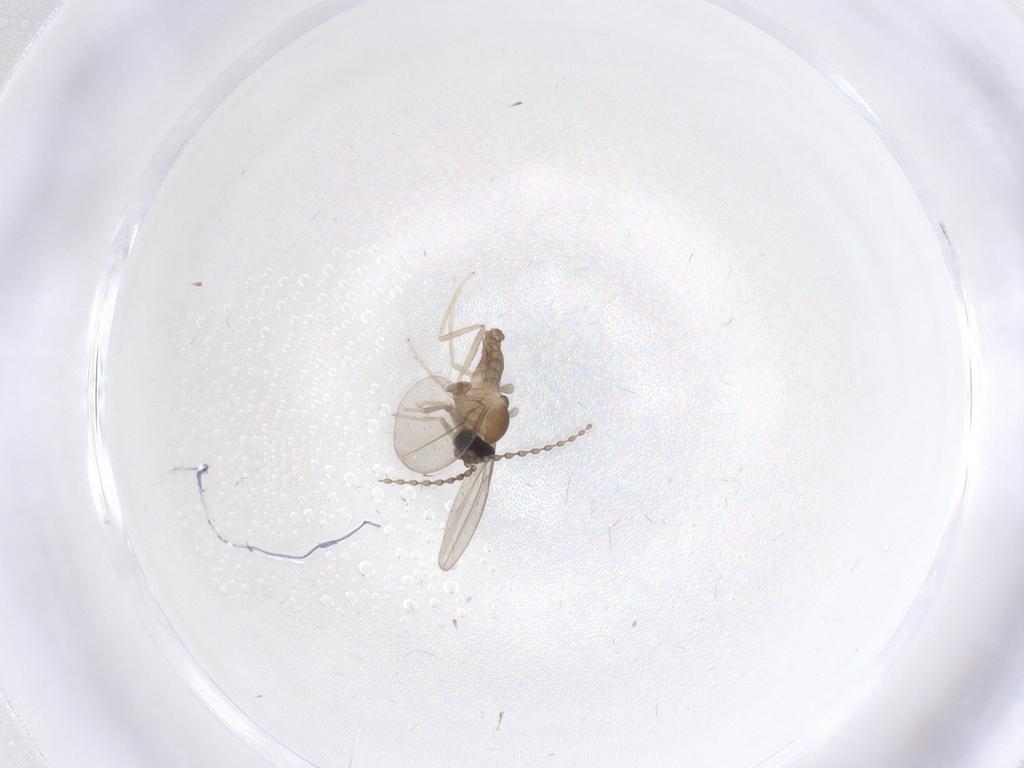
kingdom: Animalia
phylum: Arthropoda
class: Insecta
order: Diptera
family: Cecidomyiidae
